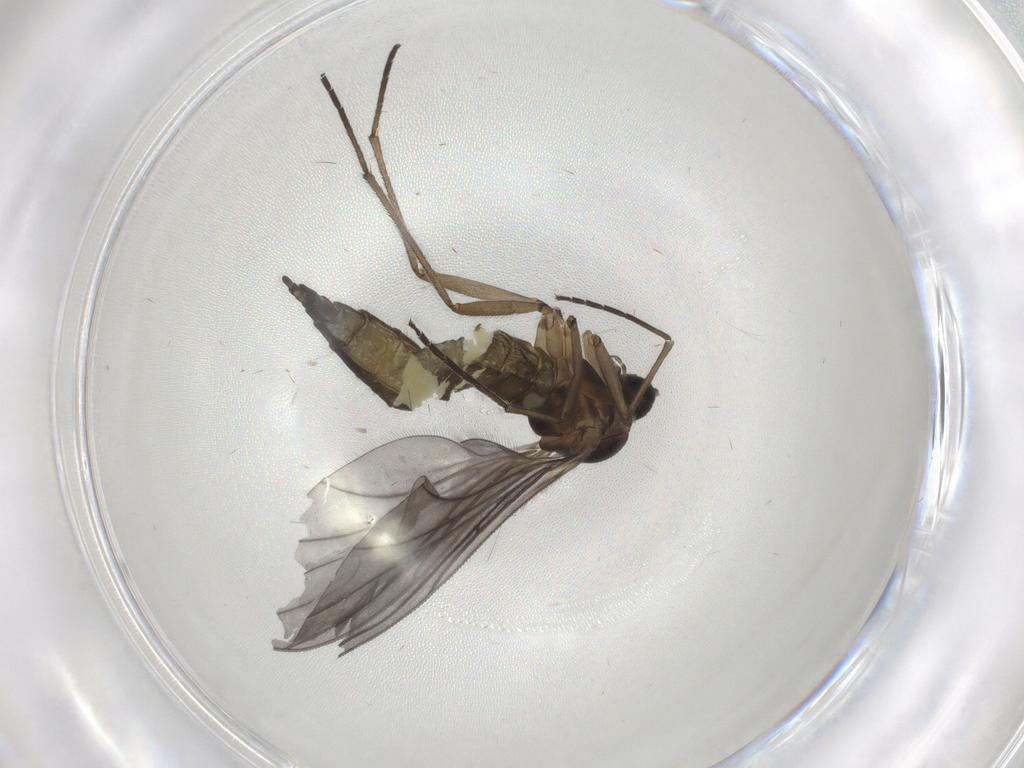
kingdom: Animalia
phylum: Arthropoda
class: Insecta
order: Diptera
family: Sciaridae
